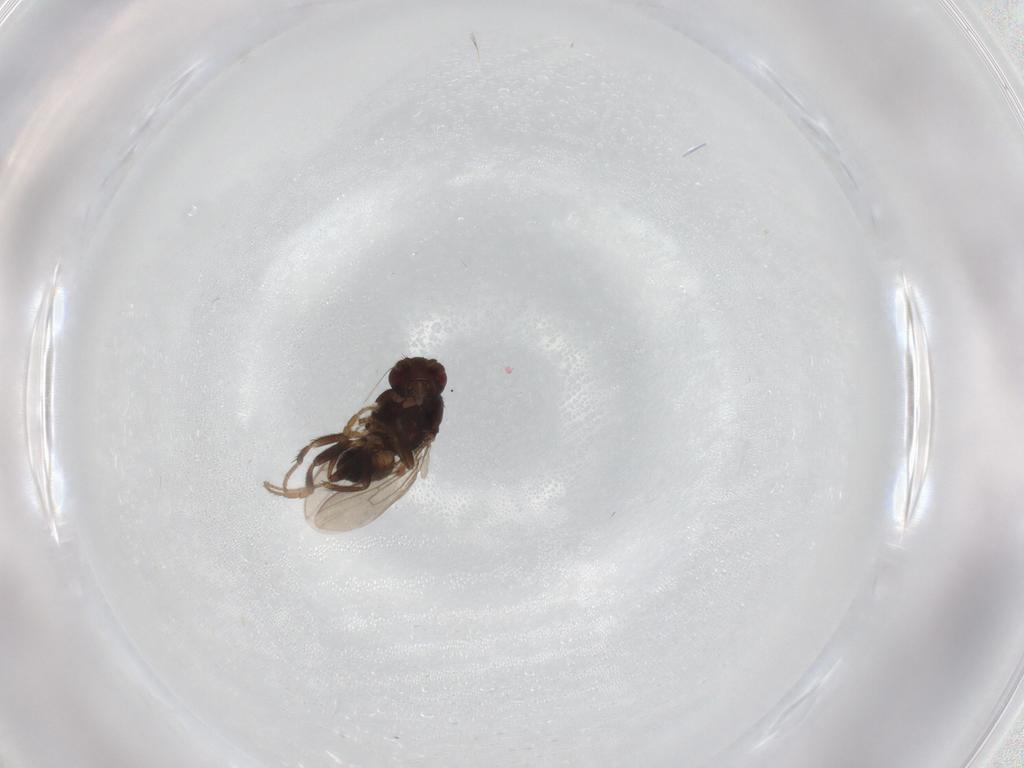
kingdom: Animalia
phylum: Arthropoda
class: Insecta
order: Diptera
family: Sphaeroceridae
